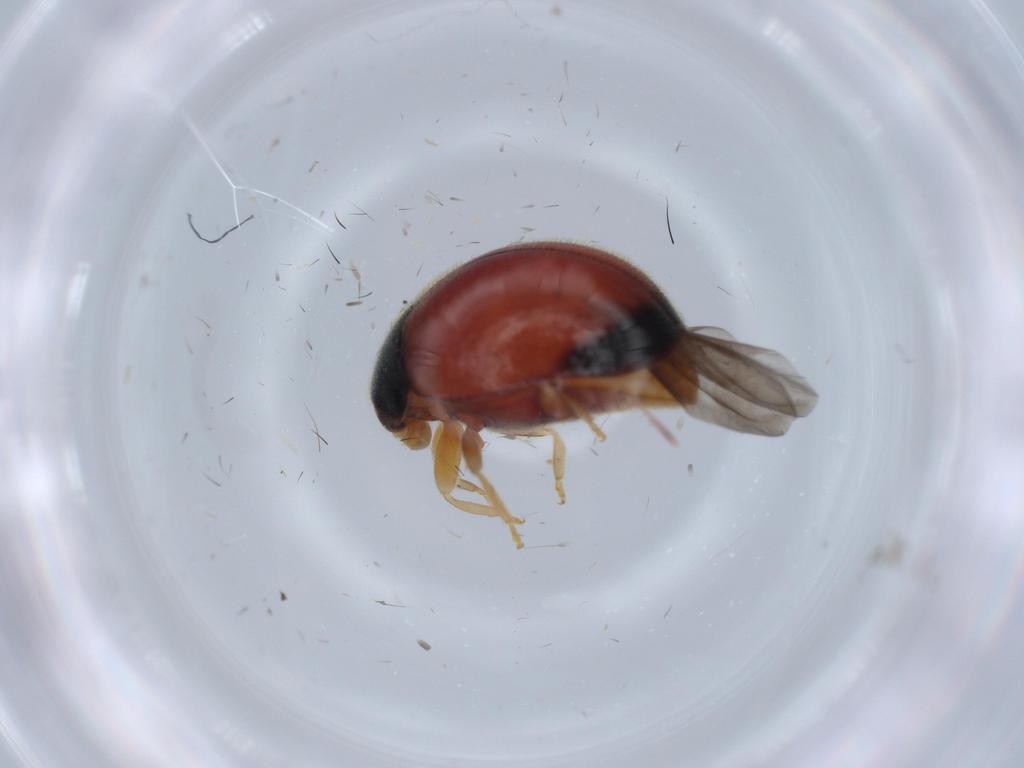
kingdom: Animalia
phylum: Arthropoda
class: Insecta
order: Coleoptera
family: Coccinellidae
